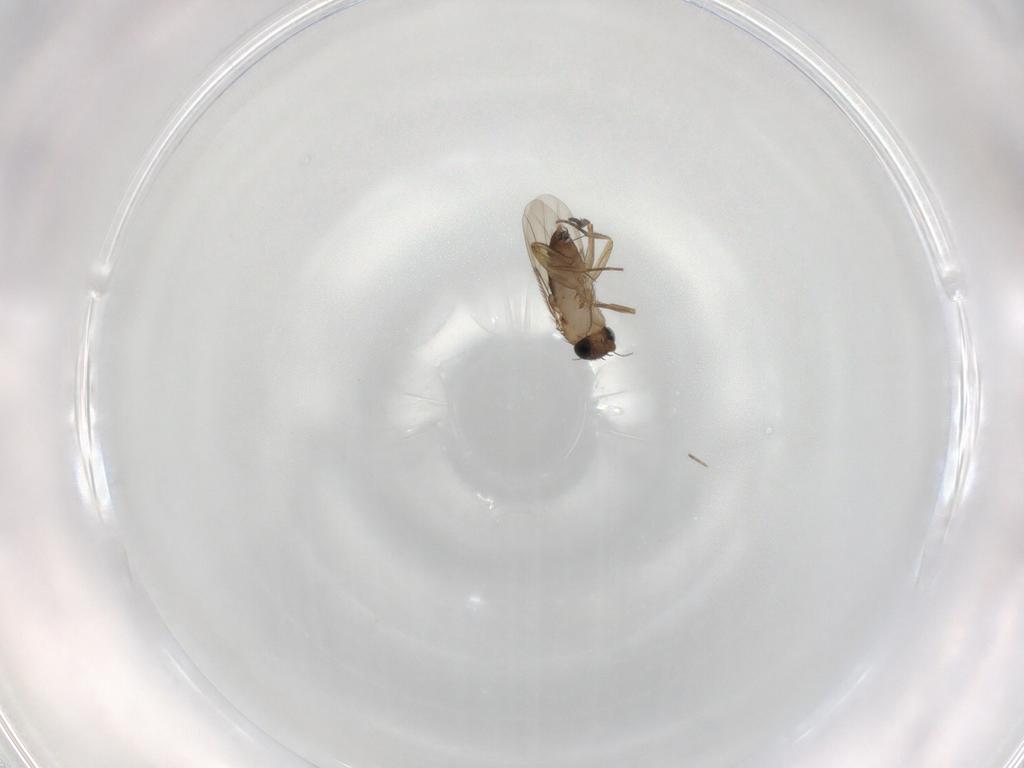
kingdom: Animalia
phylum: Arthropoda
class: Insecta
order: Diptera
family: Phoridae
